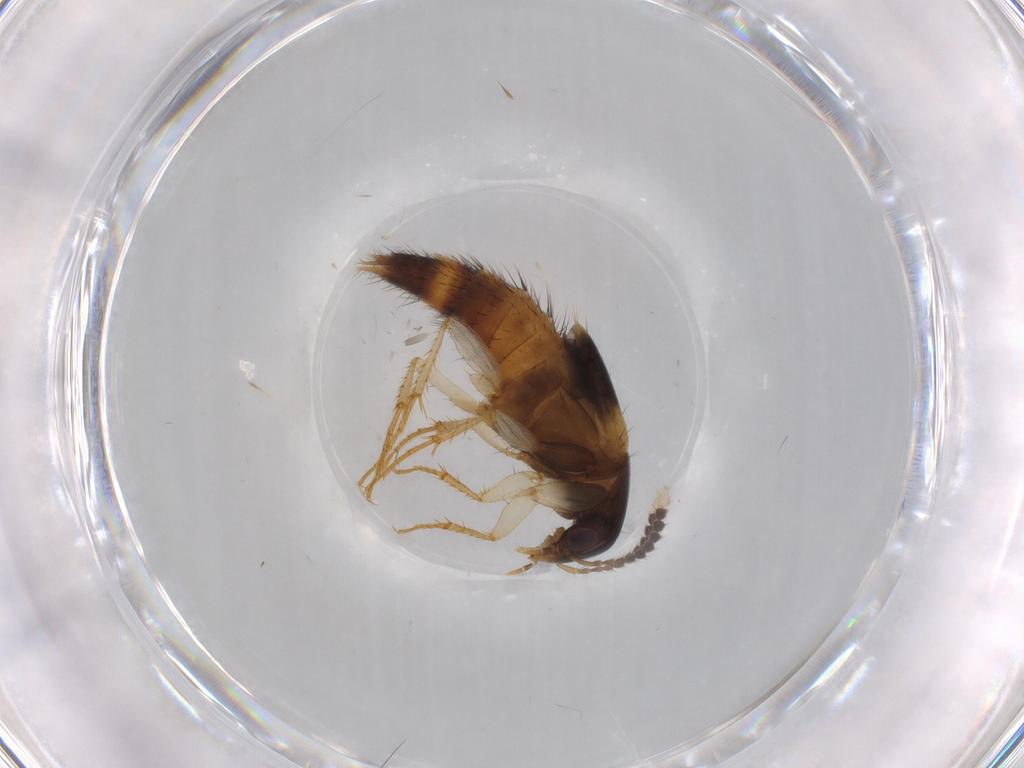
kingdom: Animalia
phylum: Arthropoda
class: Insecta
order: Coleoptera
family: Staphylinidae
